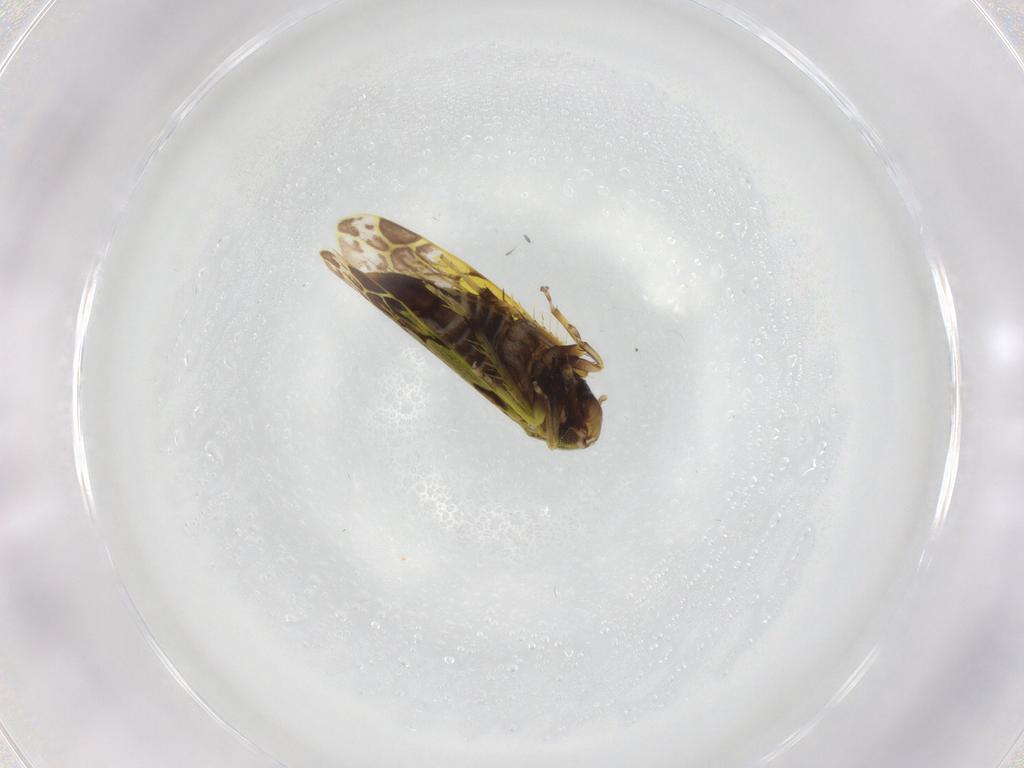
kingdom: Animalia
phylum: Arthropoda
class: Insecta
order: Hemiptera
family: Cicadellidae
